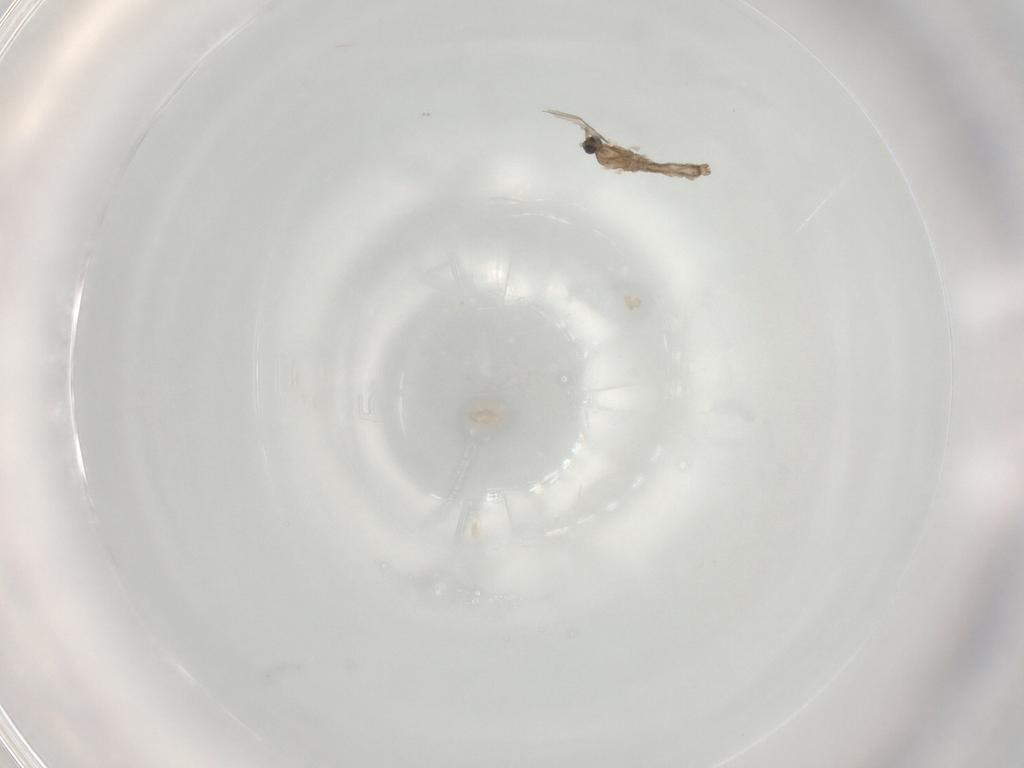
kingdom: Animalia
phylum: Arthropoda
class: Insecta
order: Diptera
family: Cecidomyiidae
